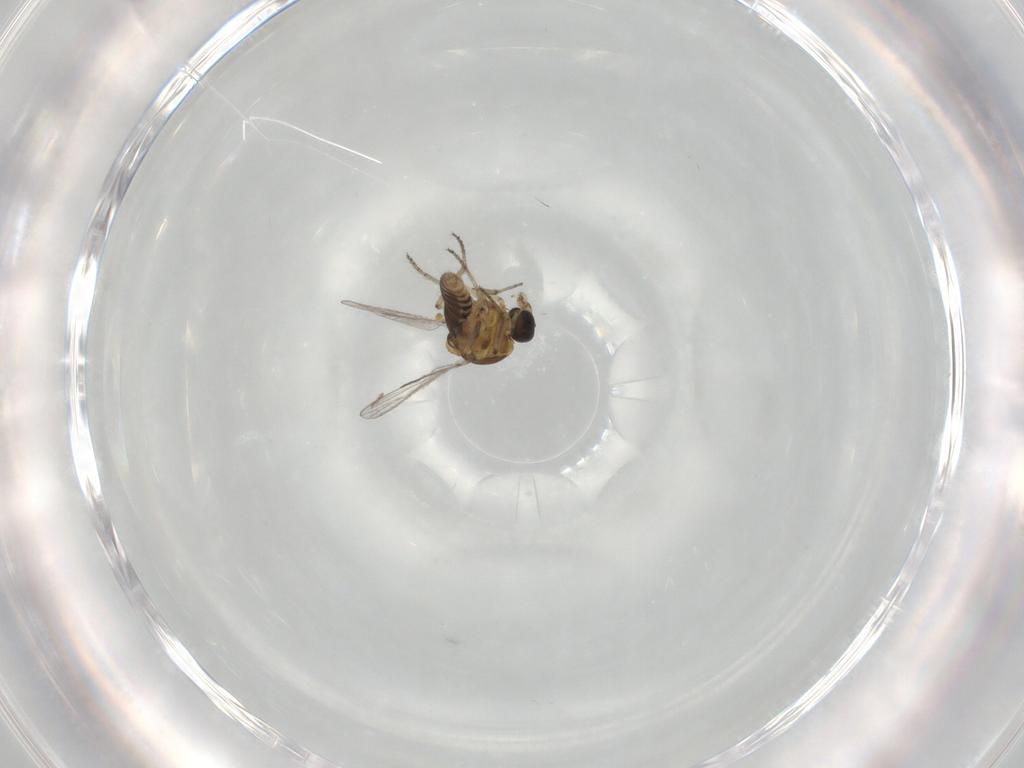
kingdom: Animalia
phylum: Arthropoda
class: Insecta
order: Diptera
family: Ceratopogonidae
